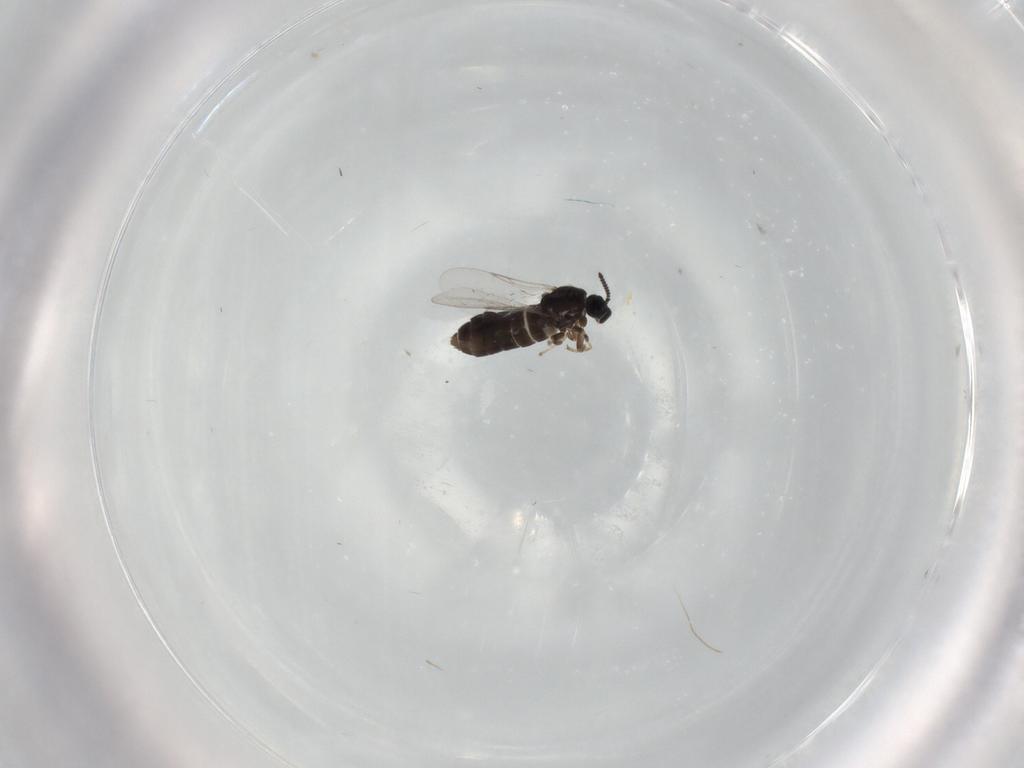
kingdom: Animalia
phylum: Arthropoda
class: Insecta
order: Diptera
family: Scatopsidae
